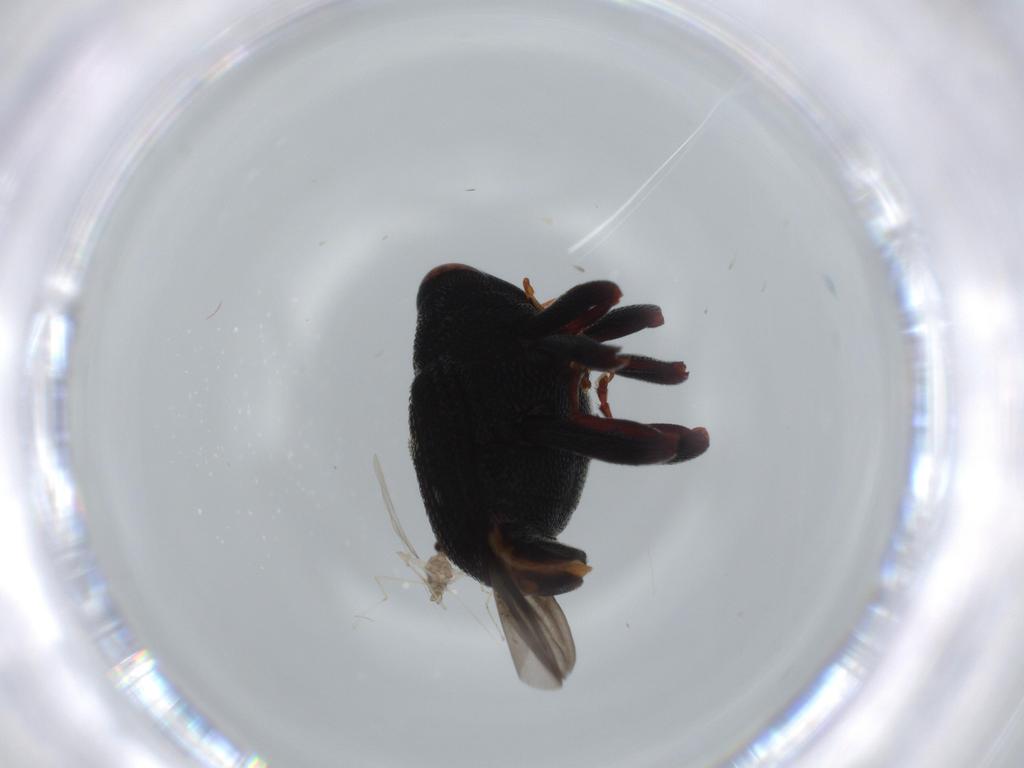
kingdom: Animalia
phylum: Arthropoda
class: Insecta
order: Coleoptera
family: Curculionidae
